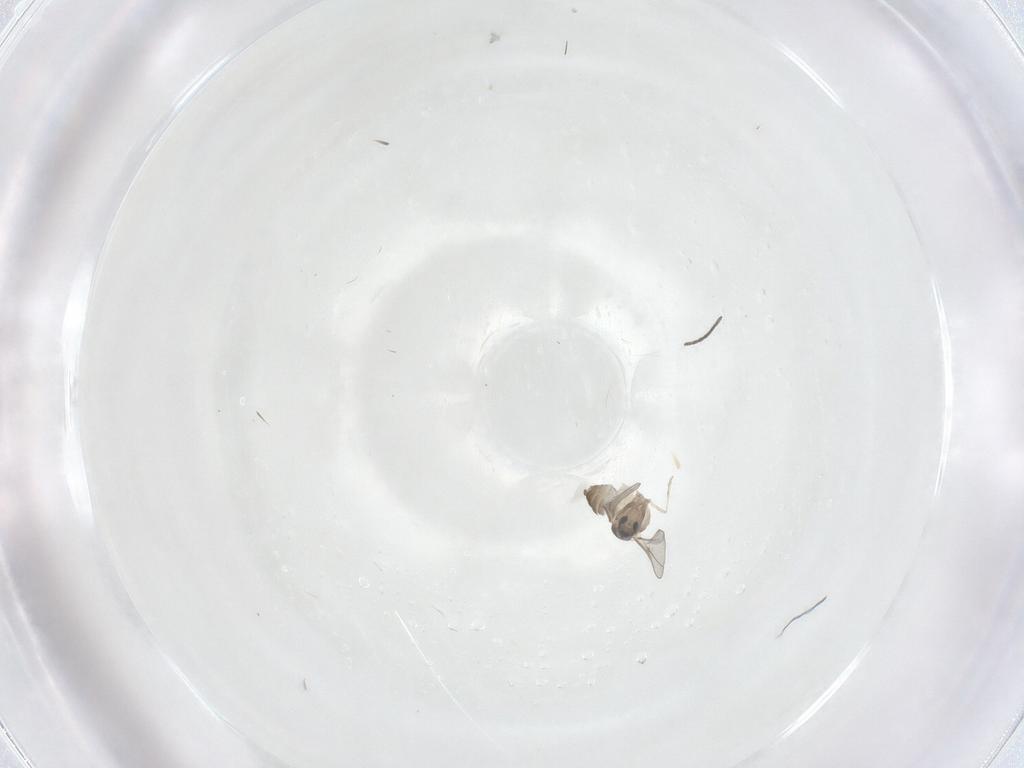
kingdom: Animalia
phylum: Arthropoda
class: Insecta
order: Diptera
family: Cecidomyiidae
